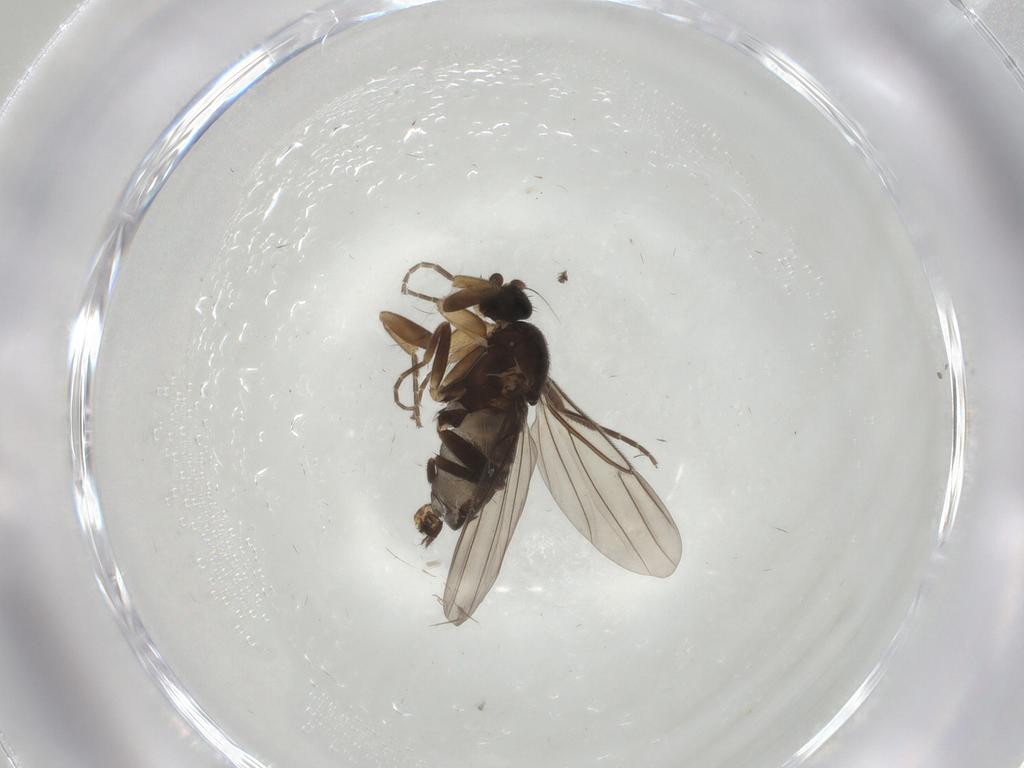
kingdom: Animalia
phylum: Arthropoda
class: Insecta
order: Diptera
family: Phoridae
